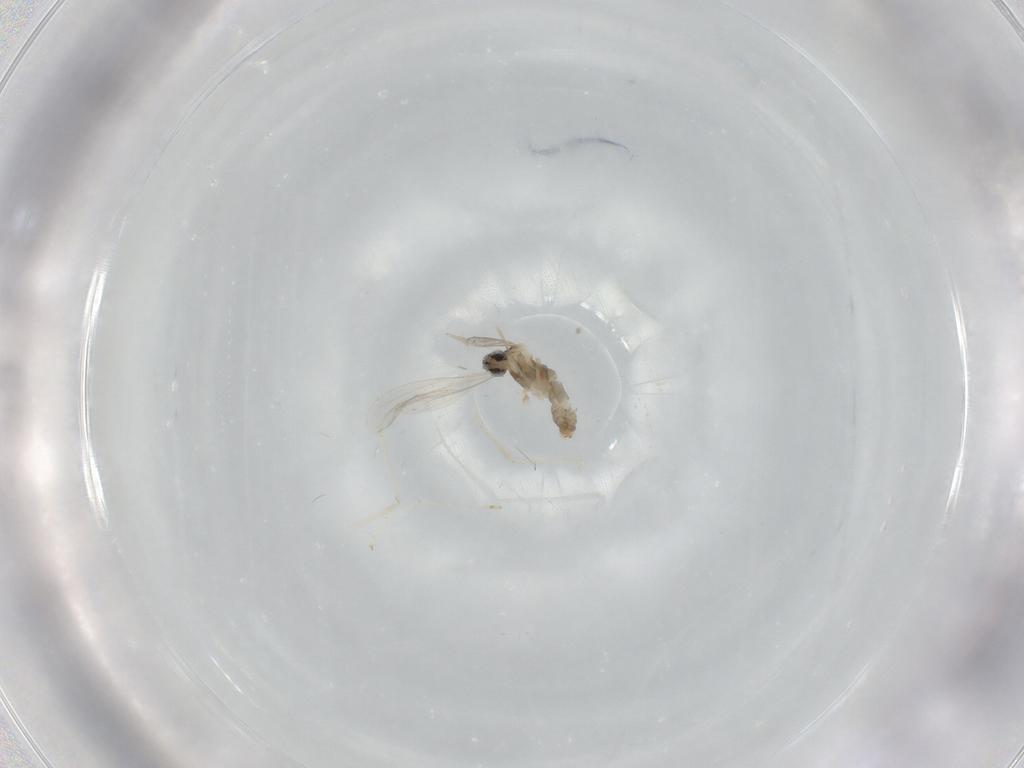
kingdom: Animalia
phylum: Arthropoda
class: Insecta
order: Diptera
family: Cecidomyiidae
